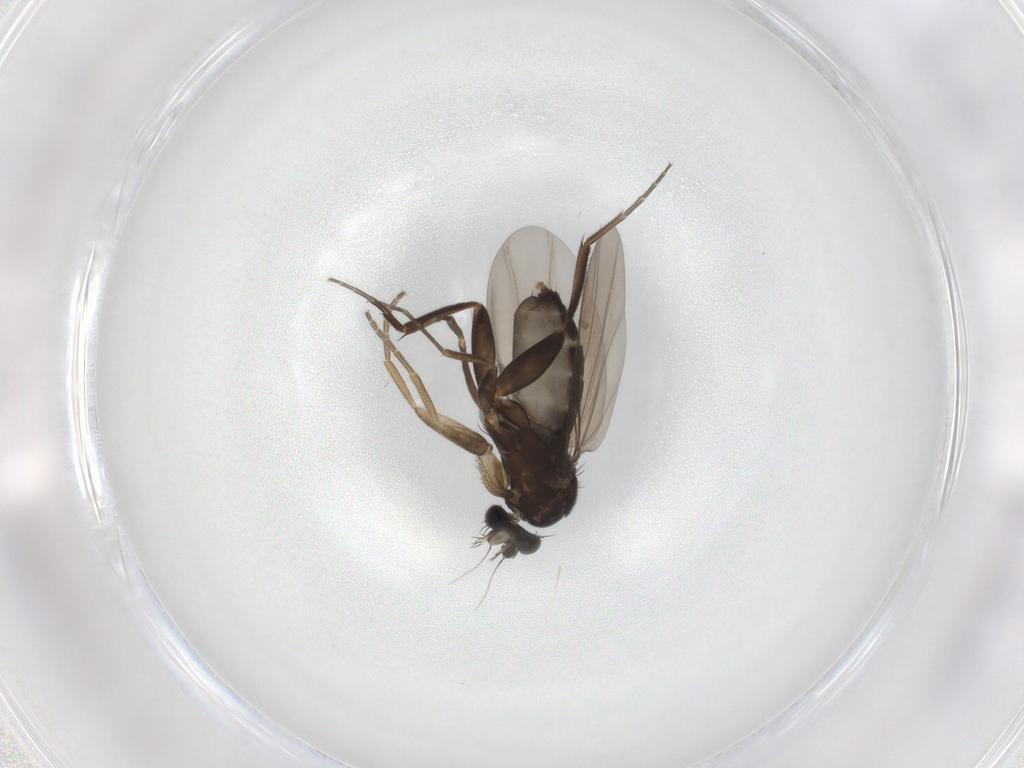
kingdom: Animalia
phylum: Arthropoda
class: Insecta
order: Diptera
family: Phoridae
